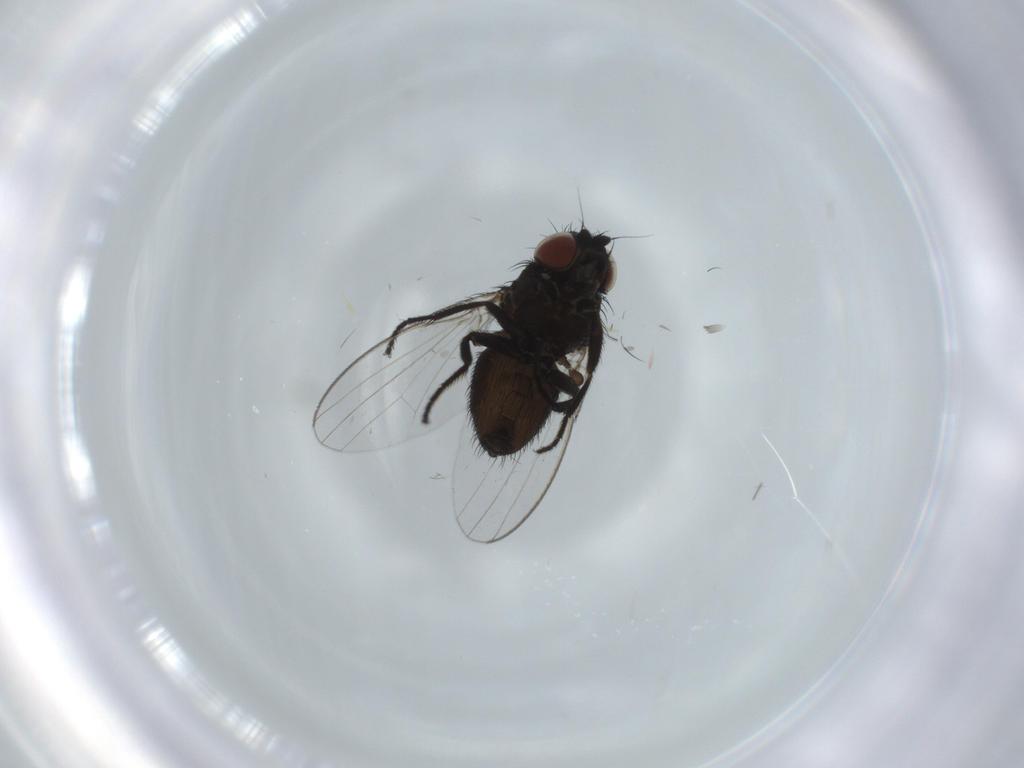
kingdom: Animalia
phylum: Arthropoda
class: Insecta
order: Diptera
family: Milichiidae
